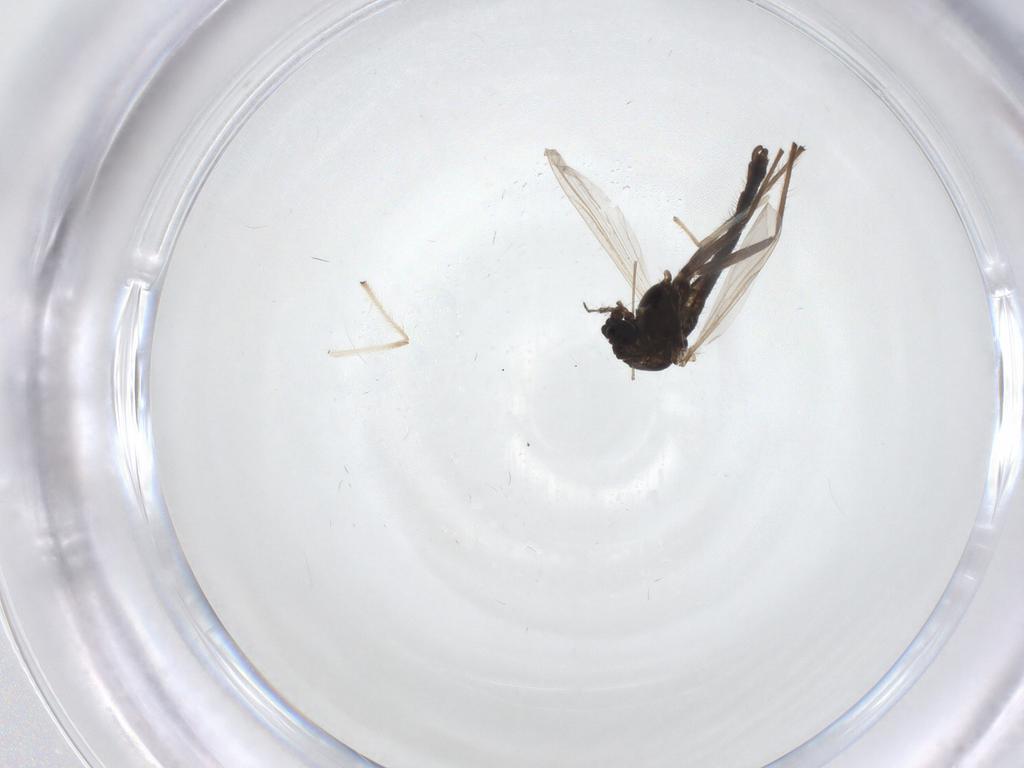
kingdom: Animalia
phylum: Arthropoda
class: Insecta
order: Diptera
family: Chironomidae
